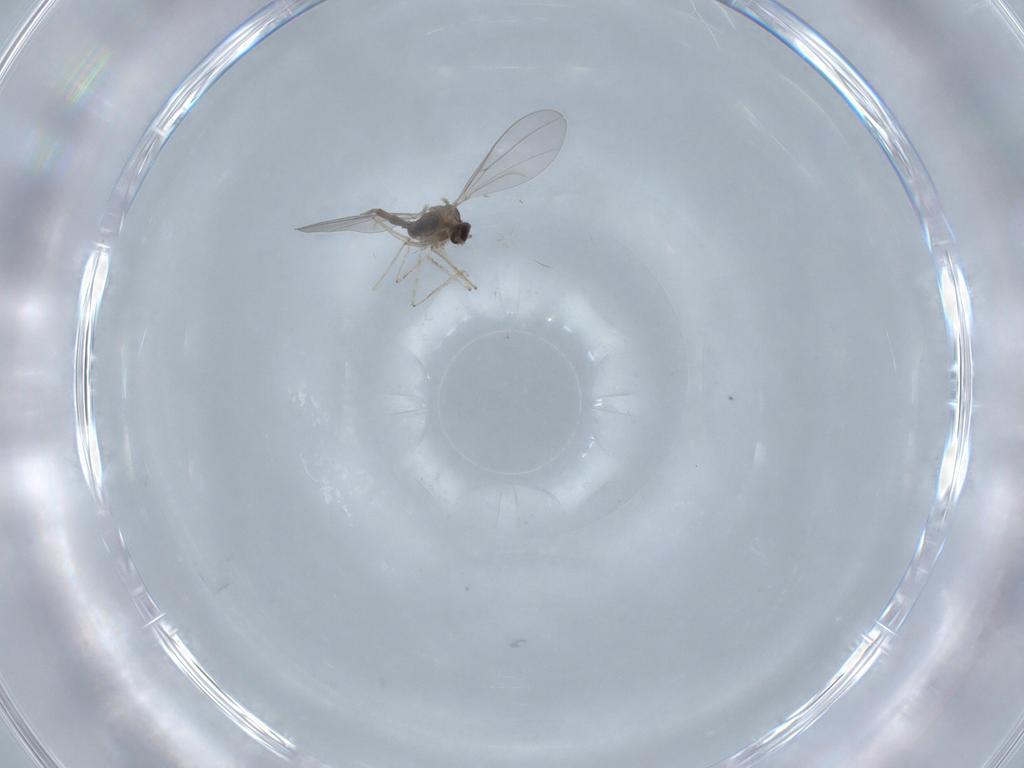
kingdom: Animalia
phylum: Arthropoda
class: Insecta
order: Diptera
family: Cecidomyiidae
